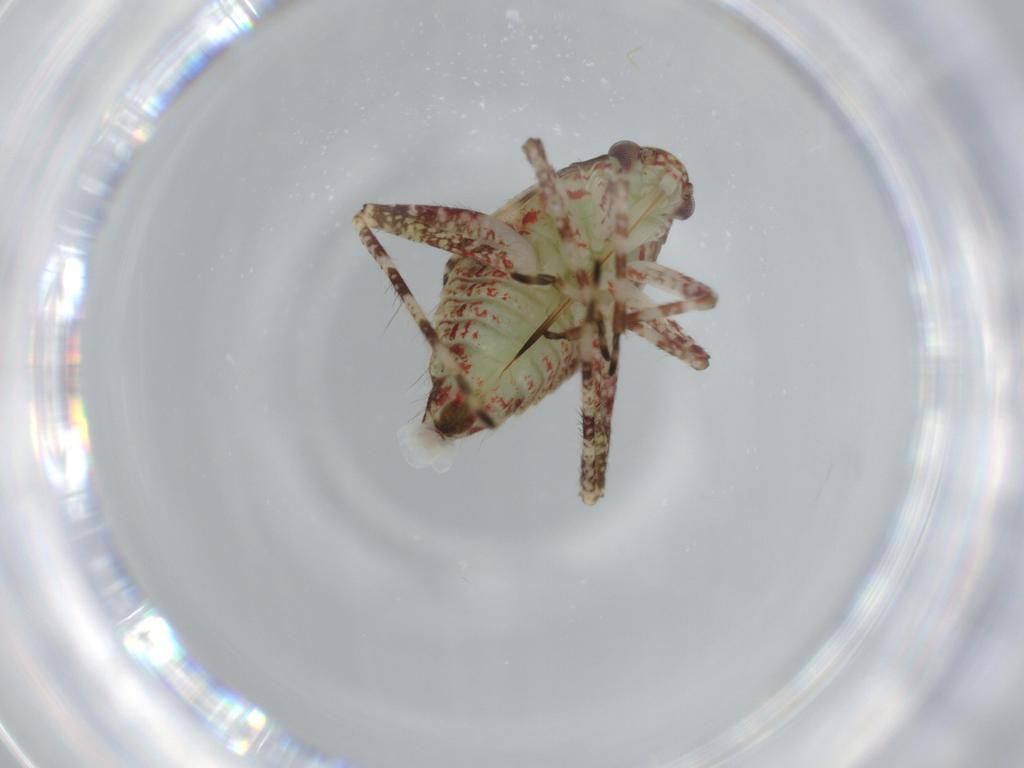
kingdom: Animalia
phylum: Arthropoda
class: Insecta
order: Hemiptera
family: Miridae
